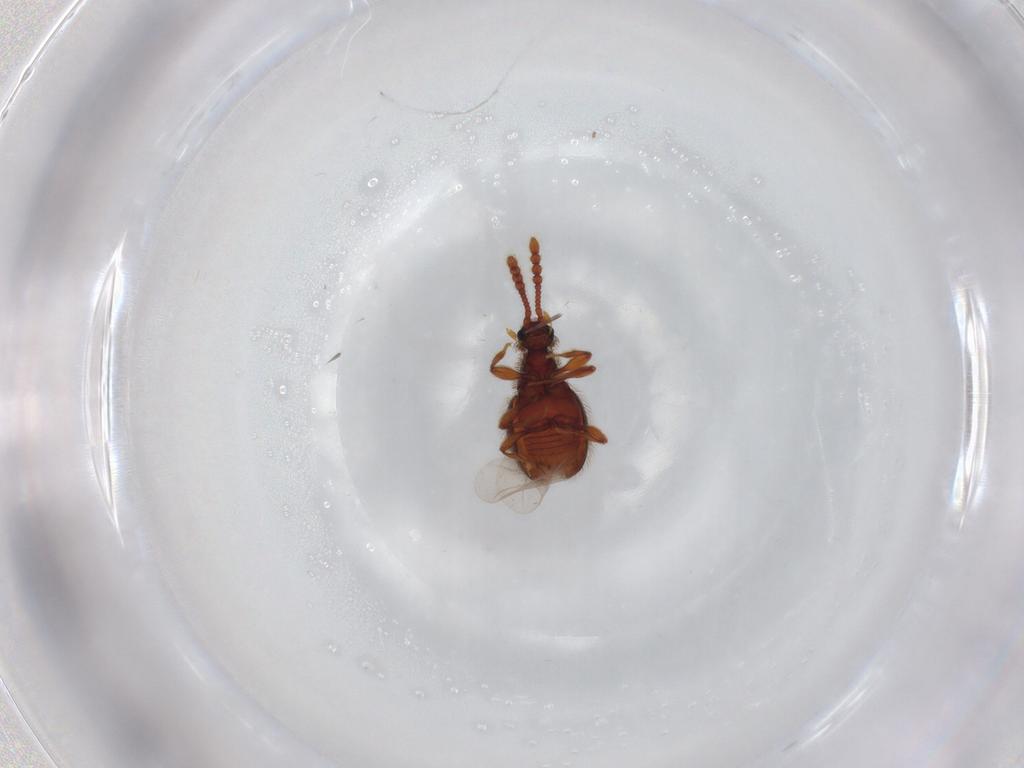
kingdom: Animalia
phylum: Arthropoda
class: Insecta
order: Coleoptera
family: Staphylinidae
